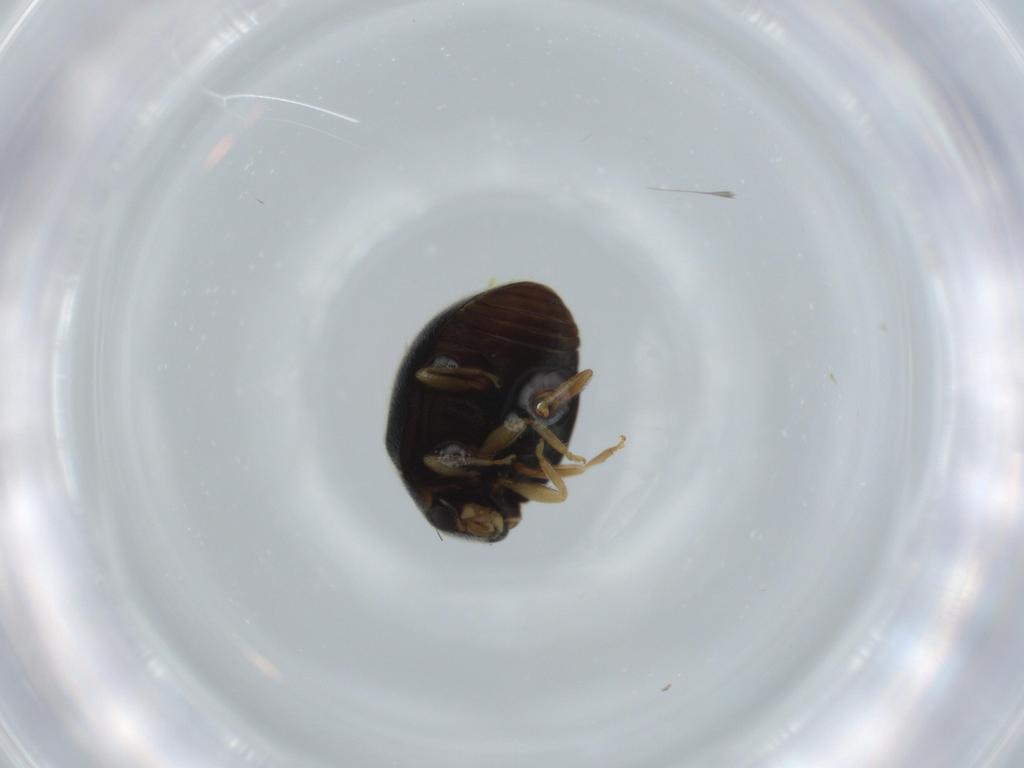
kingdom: Animalia
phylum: Arthropoda
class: Insecta
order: Coleoptera
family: Coccinellidae
